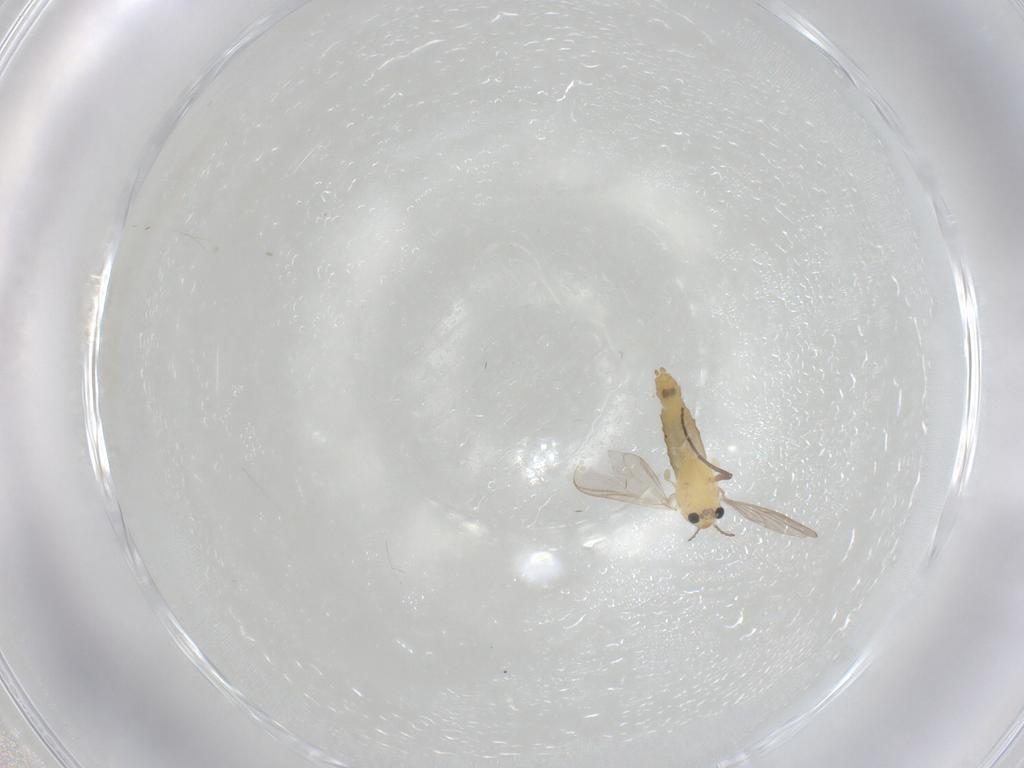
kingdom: Animalia
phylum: Arthropoda
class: Insecta
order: Diptera
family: Chironomidae
